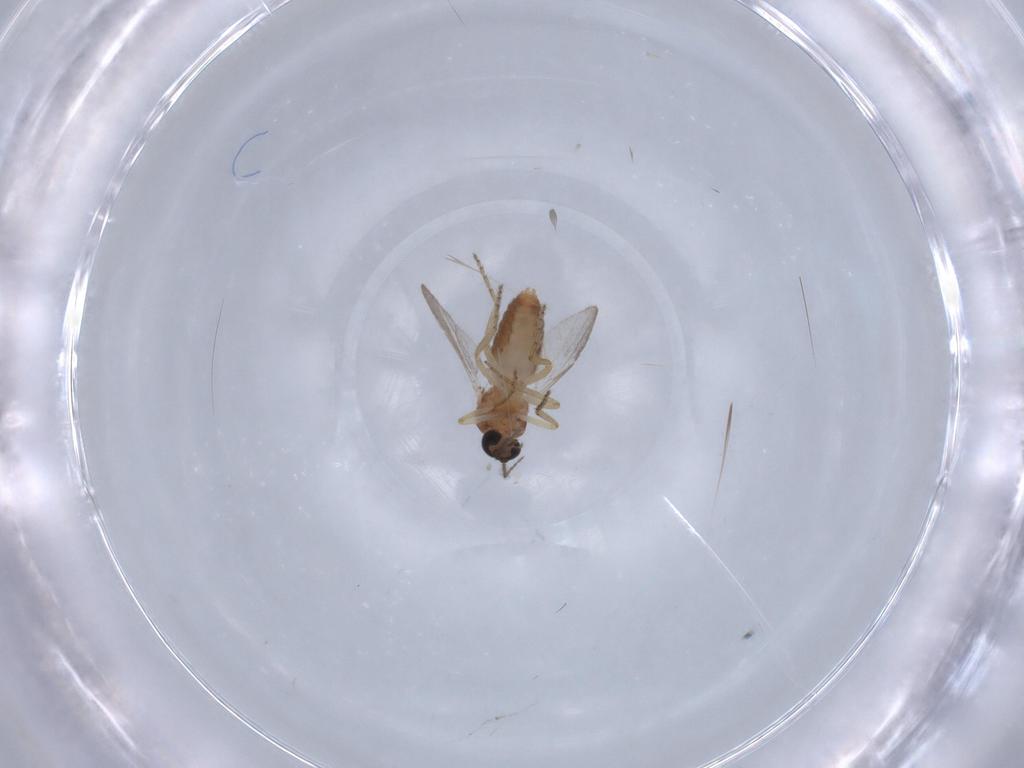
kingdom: Animalia
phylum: Arthropoda
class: Insecta
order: Diptera
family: Cecidomyiidae
